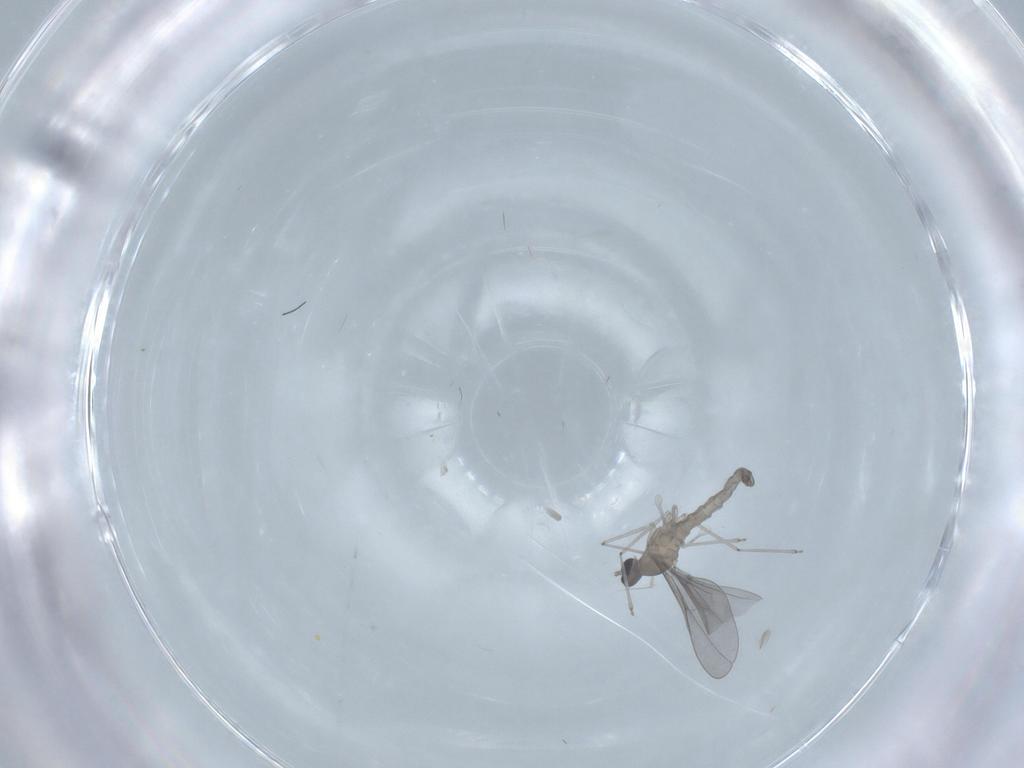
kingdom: Animalia
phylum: Arthropoda
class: Insecta
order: Diptera
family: Cecidomyiidae
